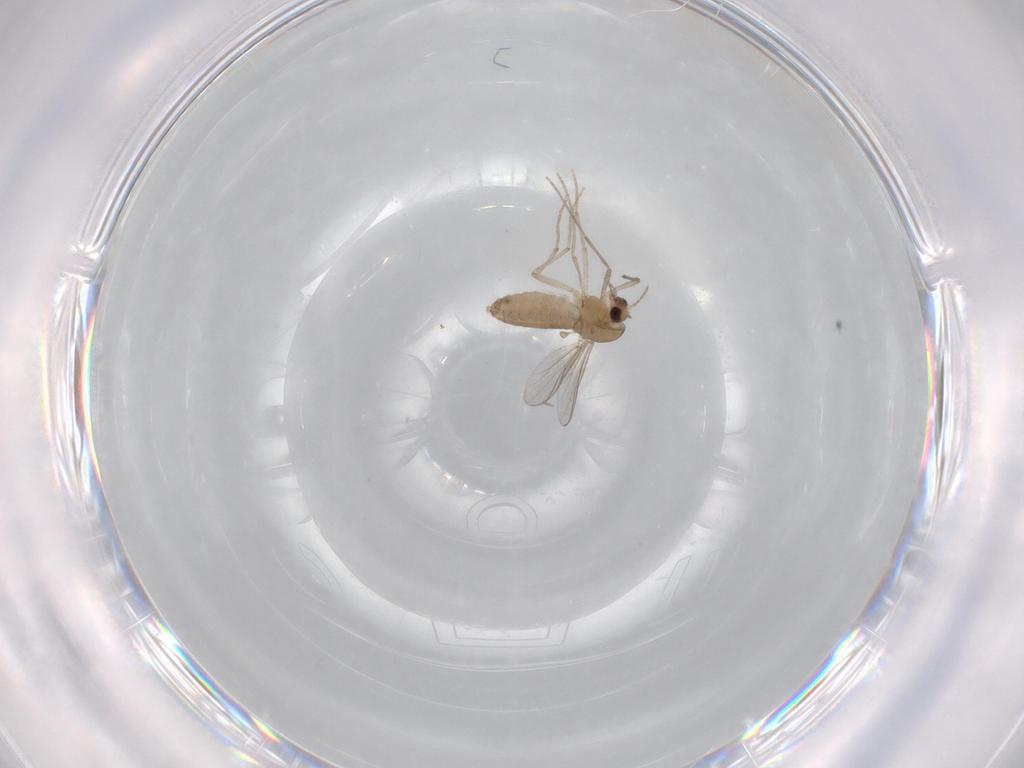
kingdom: Animalia
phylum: Arthropoda
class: Insecta
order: Diptera
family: Chironomidae
